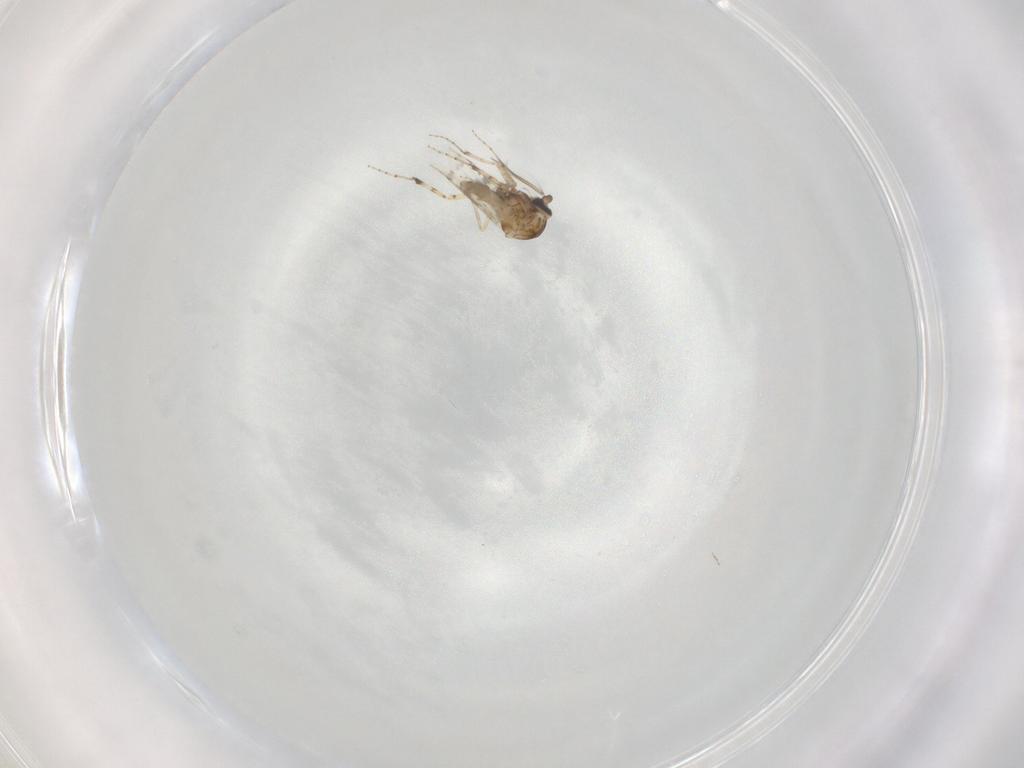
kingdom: Animalia
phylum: Arthropoda
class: Insecta
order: Diptera
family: Ceratopogonidae
